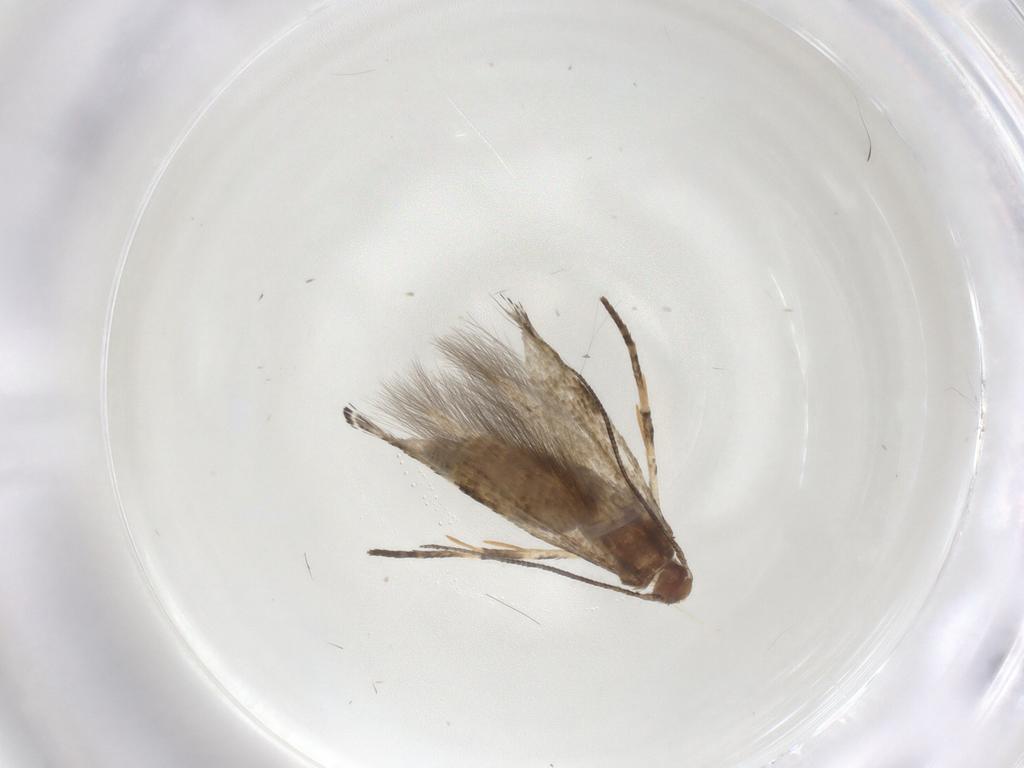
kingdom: Animalia
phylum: Arthropoda
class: Insecta
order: Lepidoptera
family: Momphidae
